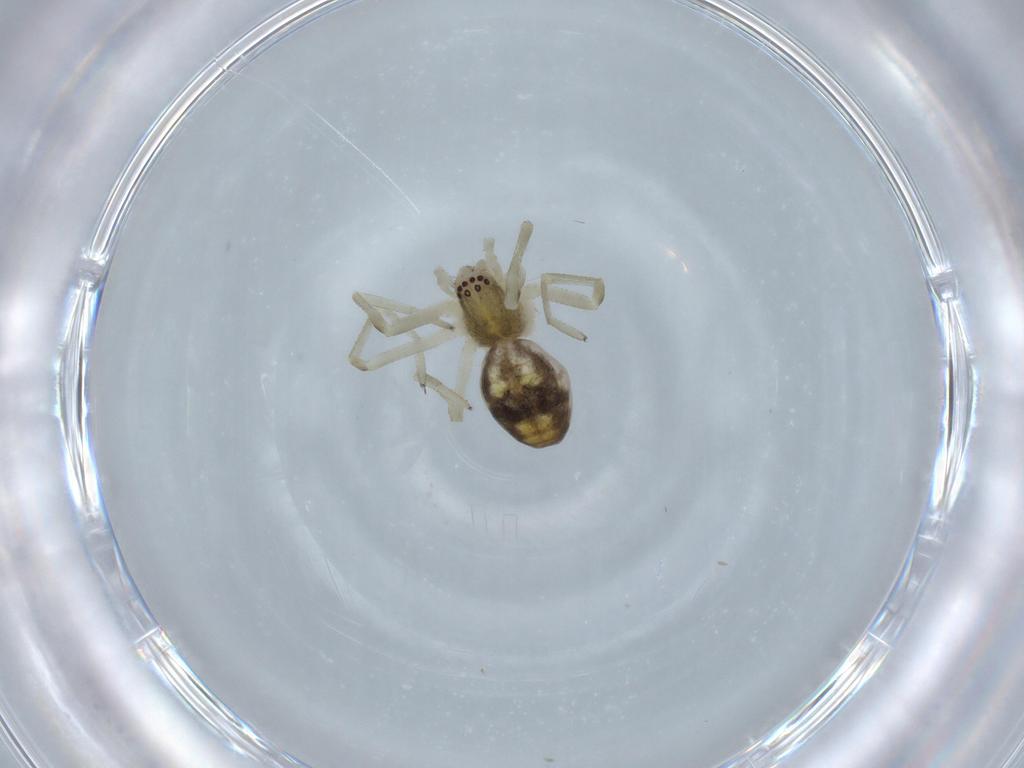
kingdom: Animalia
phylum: Arthropoda
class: Arachnida
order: Araneae
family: Dictynidae
